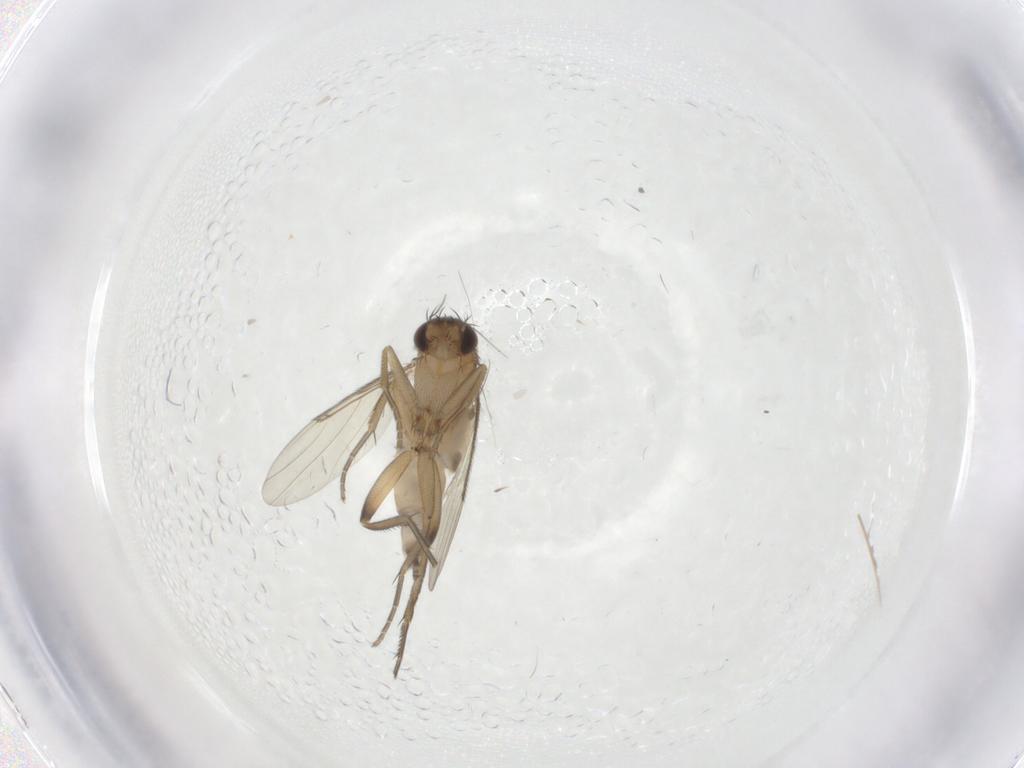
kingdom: Animalia
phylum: Arthropoda
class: Insecta
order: Diptera
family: Phoridae
